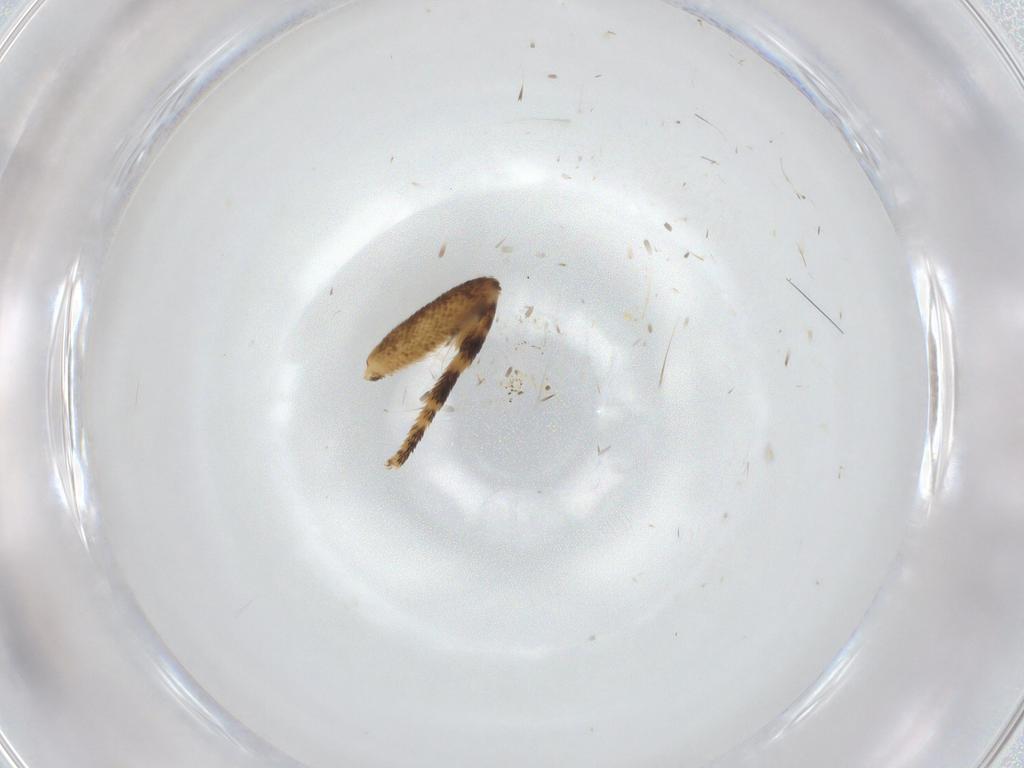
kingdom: Animalia
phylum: Arthropoda
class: Insecta
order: Lepidoptera
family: Tortricidae
